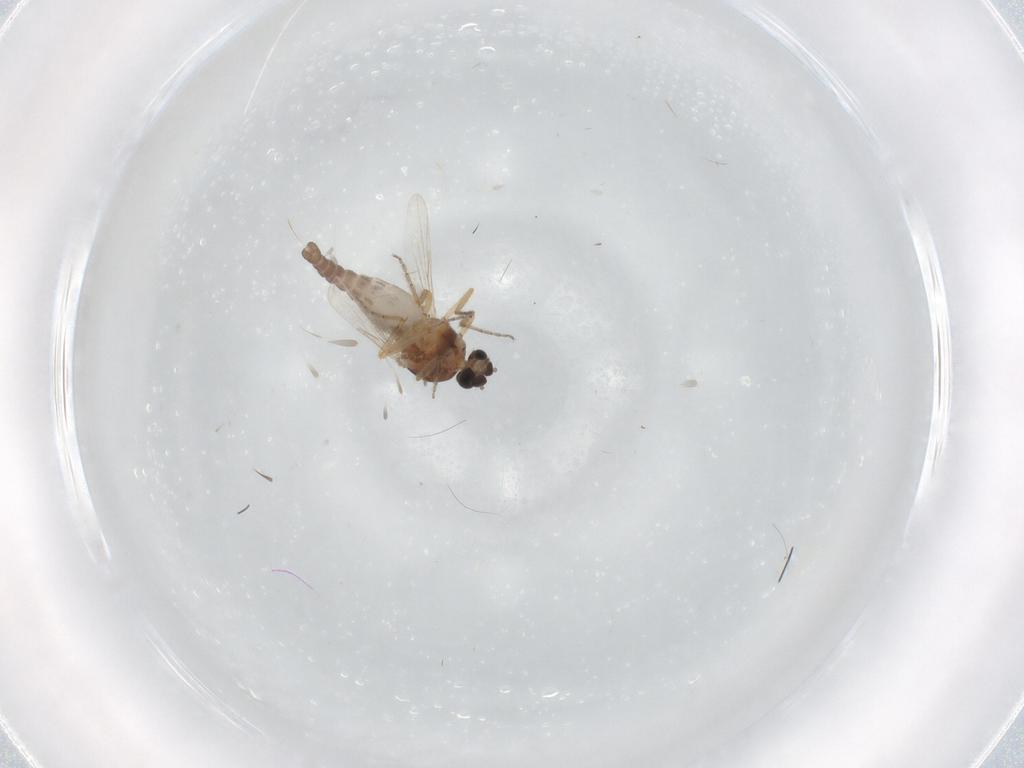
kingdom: Animalia
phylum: Arthropoda
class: Insecta
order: Diptera
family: Ceratopogonidae
